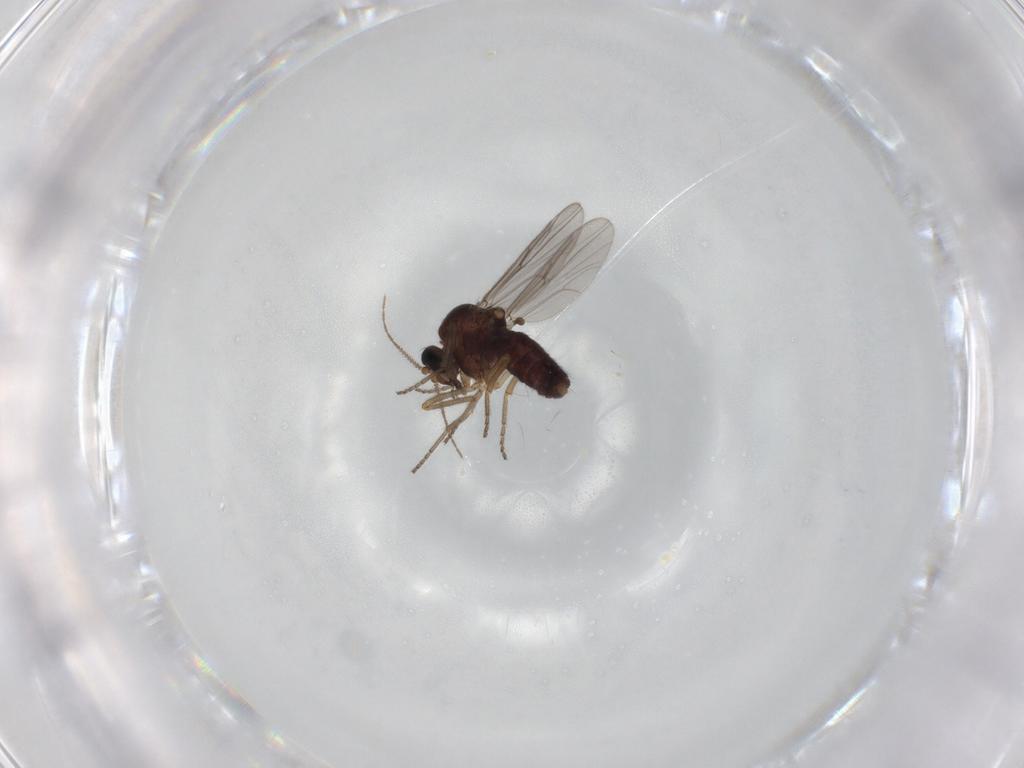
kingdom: Animalia
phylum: Arthropoda
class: Insecta
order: Diptera
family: Ceratopogonidae
